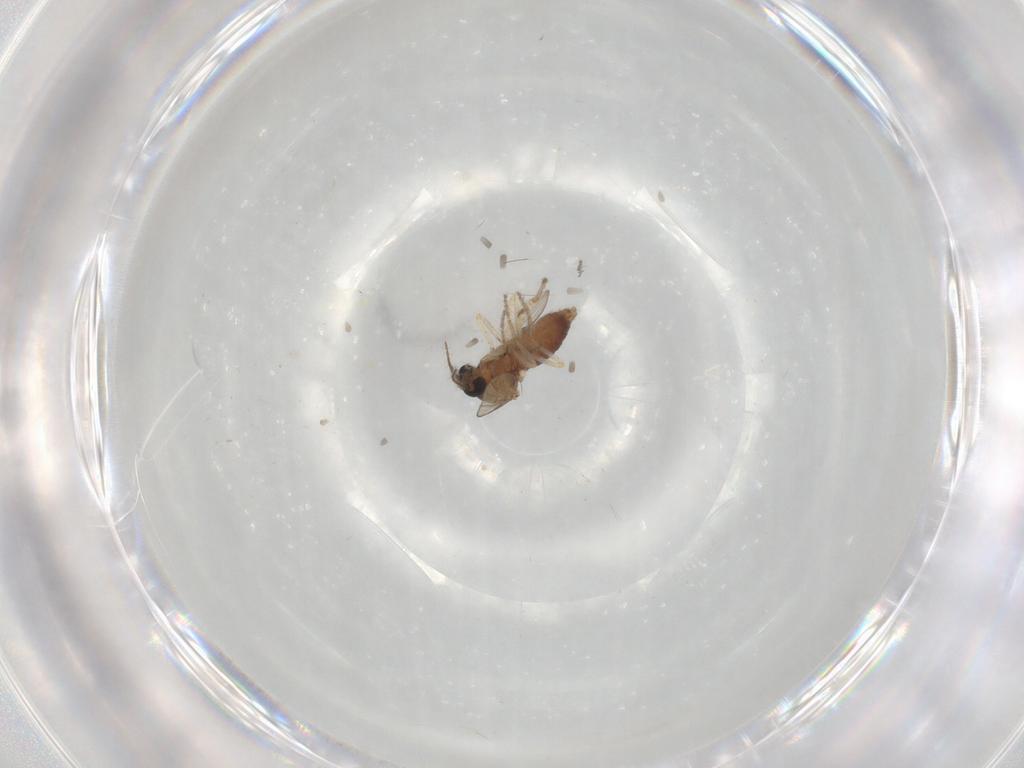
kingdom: Animalia
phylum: Arthropoda
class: Insecta
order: Diptera
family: Ceratopogonidae
